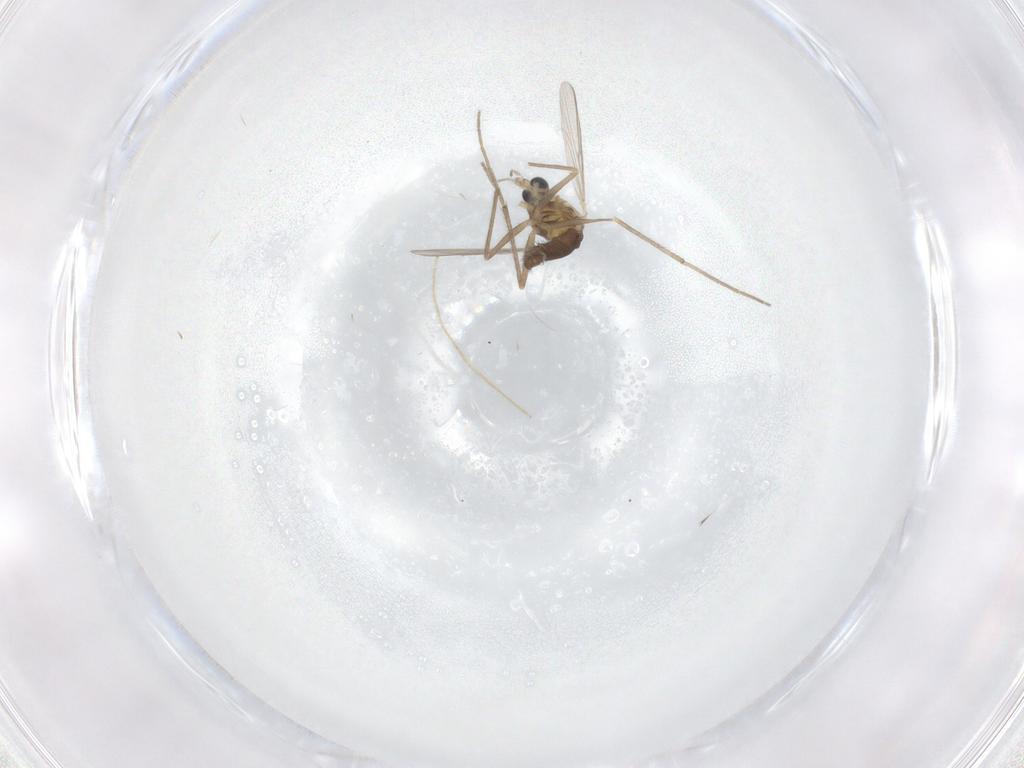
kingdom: Animalia
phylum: Arthropoda
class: Insecta
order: Diptera
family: Chironomidae
